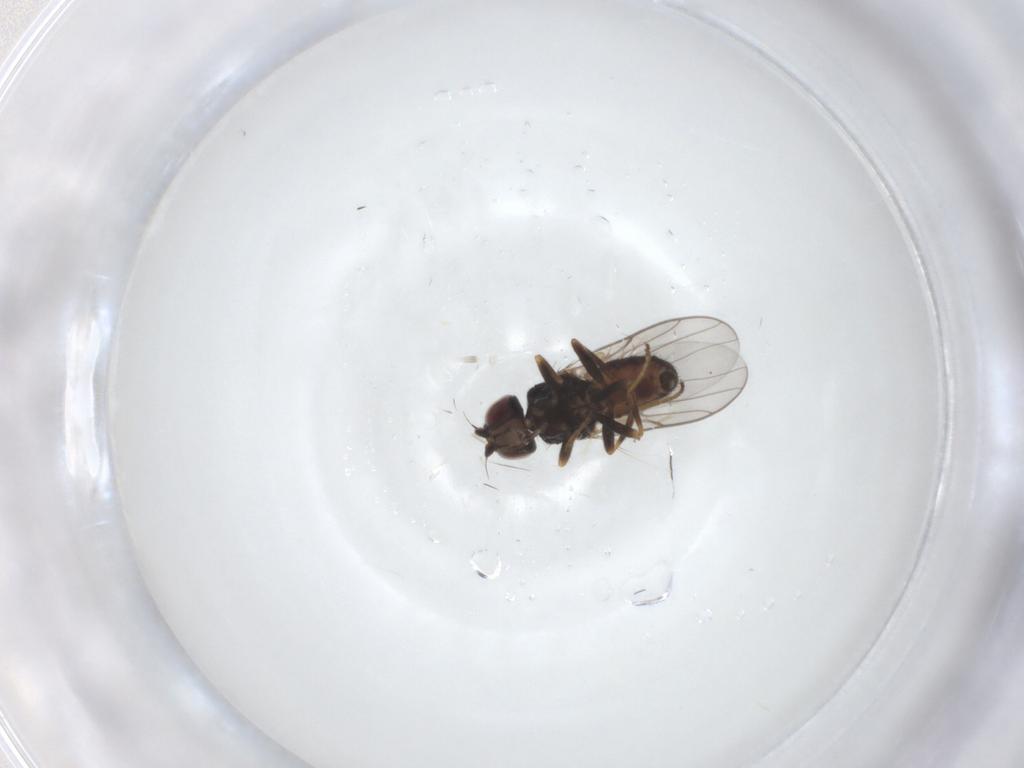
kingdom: Animalia
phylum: Arthropoda
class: Insecta
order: Diptera
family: Chloropidae
